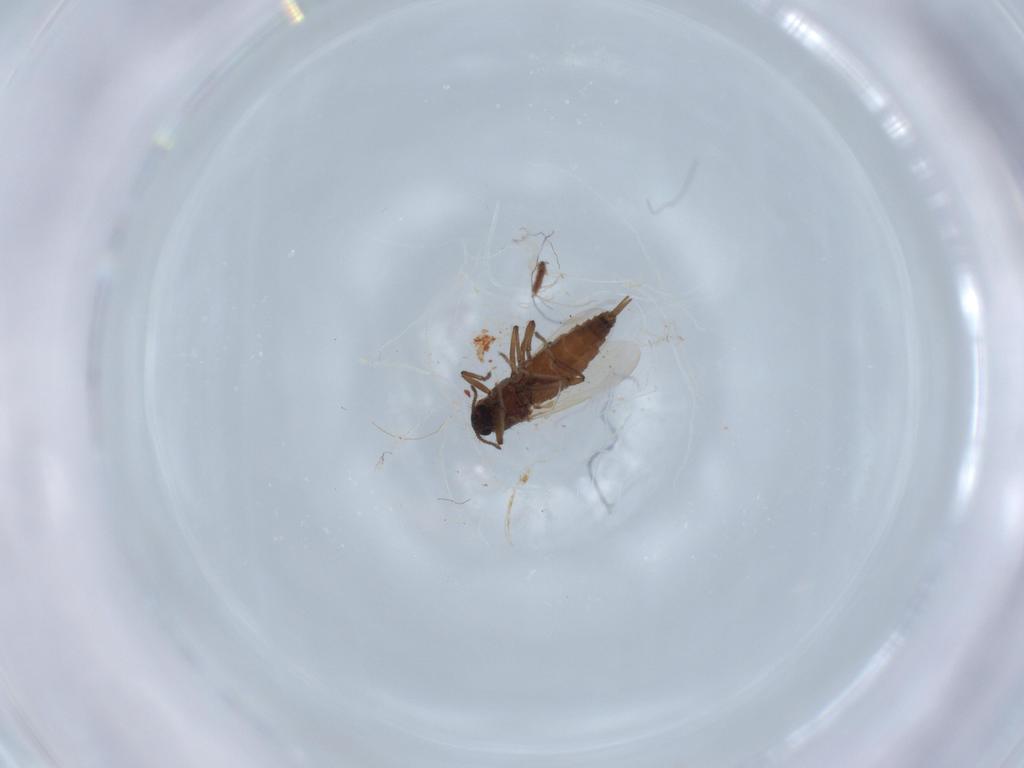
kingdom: Animalia
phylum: Arthropoda
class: Insecta
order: Diptera
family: Ceratopogonidae
